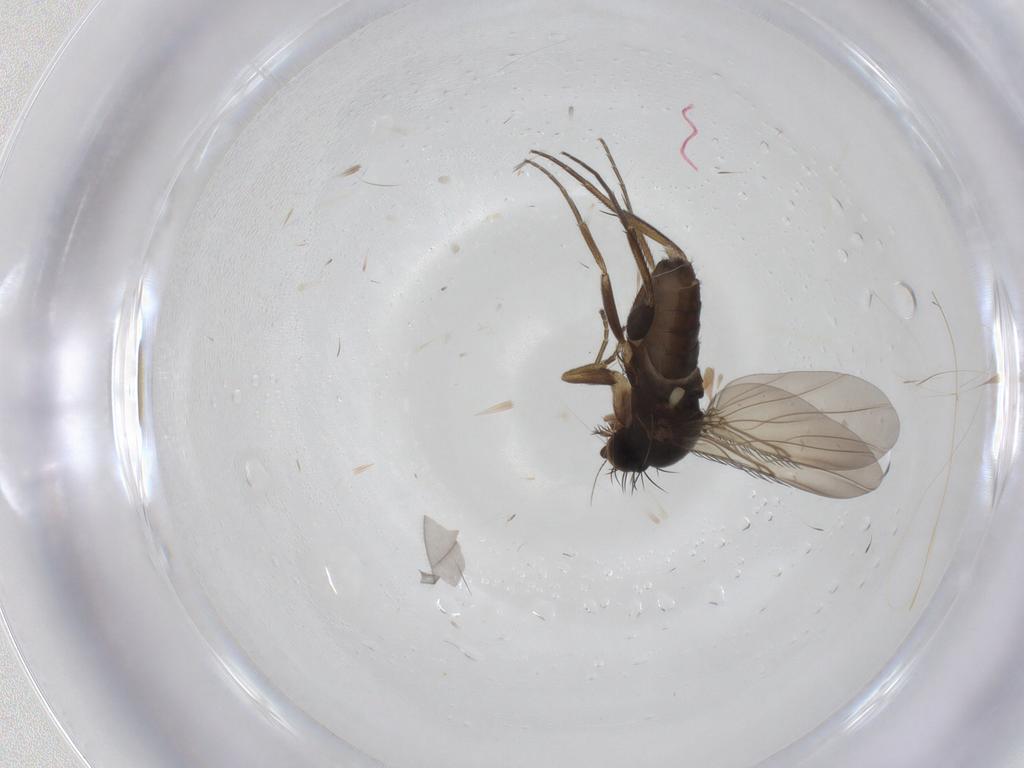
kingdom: Animalia
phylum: Arthropoda
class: Insecta
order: Diptera
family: Phoridae
